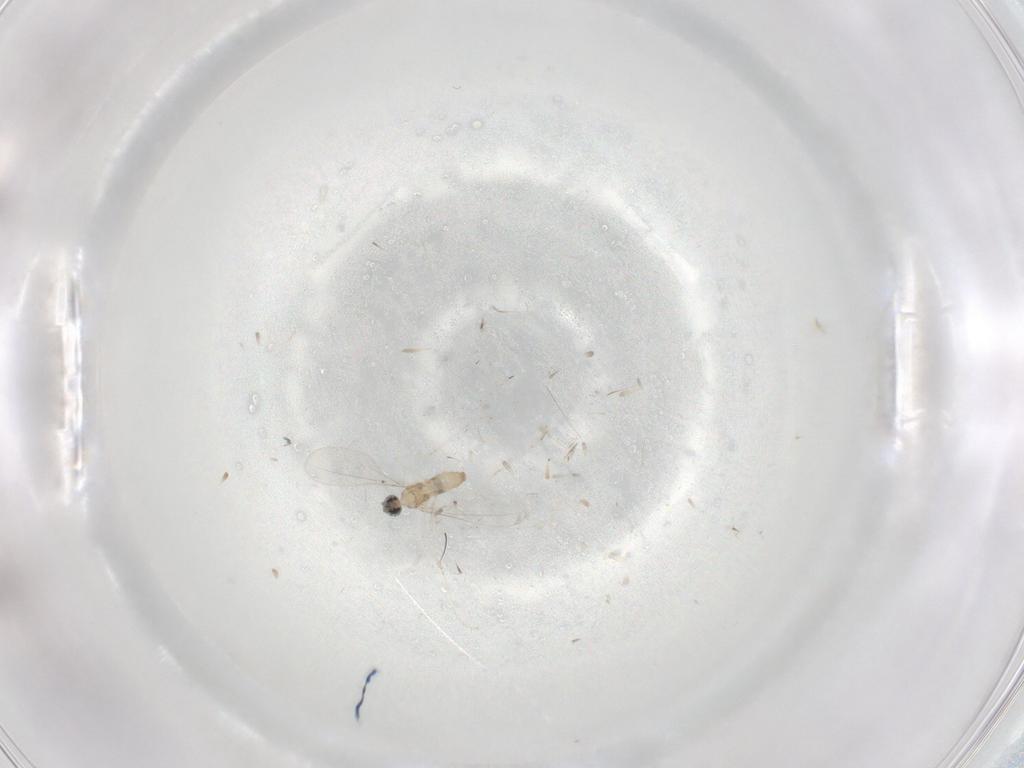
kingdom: Animalia
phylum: Arthropoda
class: Insecta
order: Diptera
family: Cecidomyiidae
